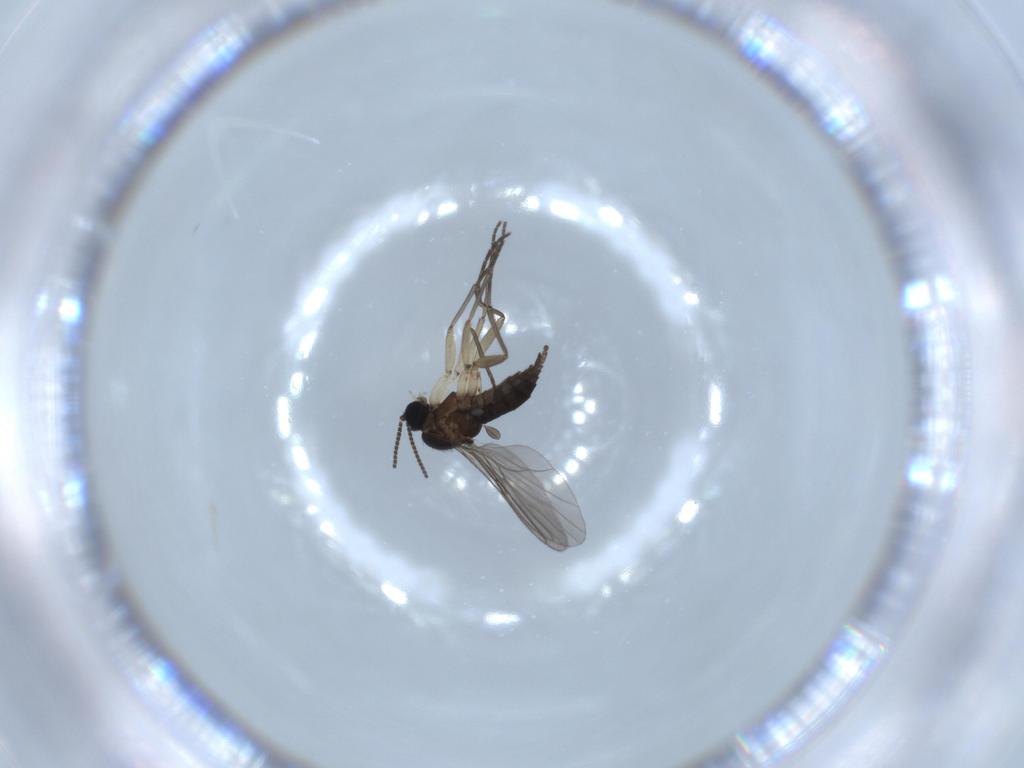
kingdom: Animalia
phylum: Arthropoda
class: Insecta
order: Diptera
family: Sciaridae
